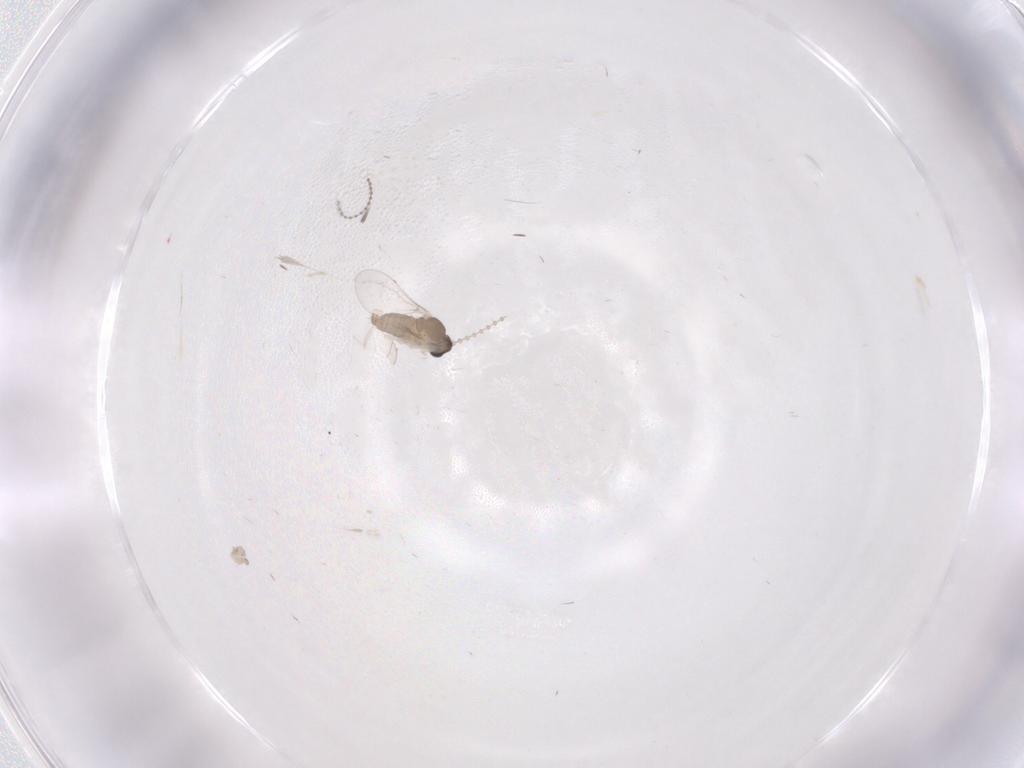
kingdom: Animalia
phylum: Arthropoda
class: Insecta
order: Diptera
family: Cecidomyiidae
